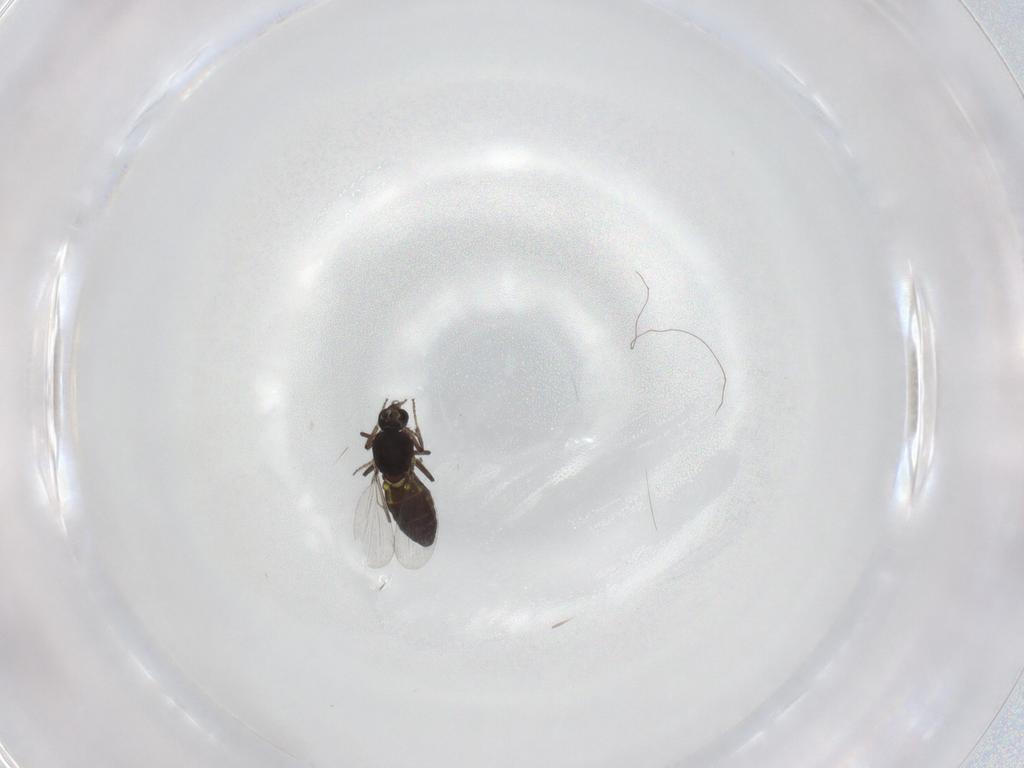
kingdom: Animalia
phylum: Arthropoda
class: Insecta
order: Diptera
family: Ceratopogonidae
